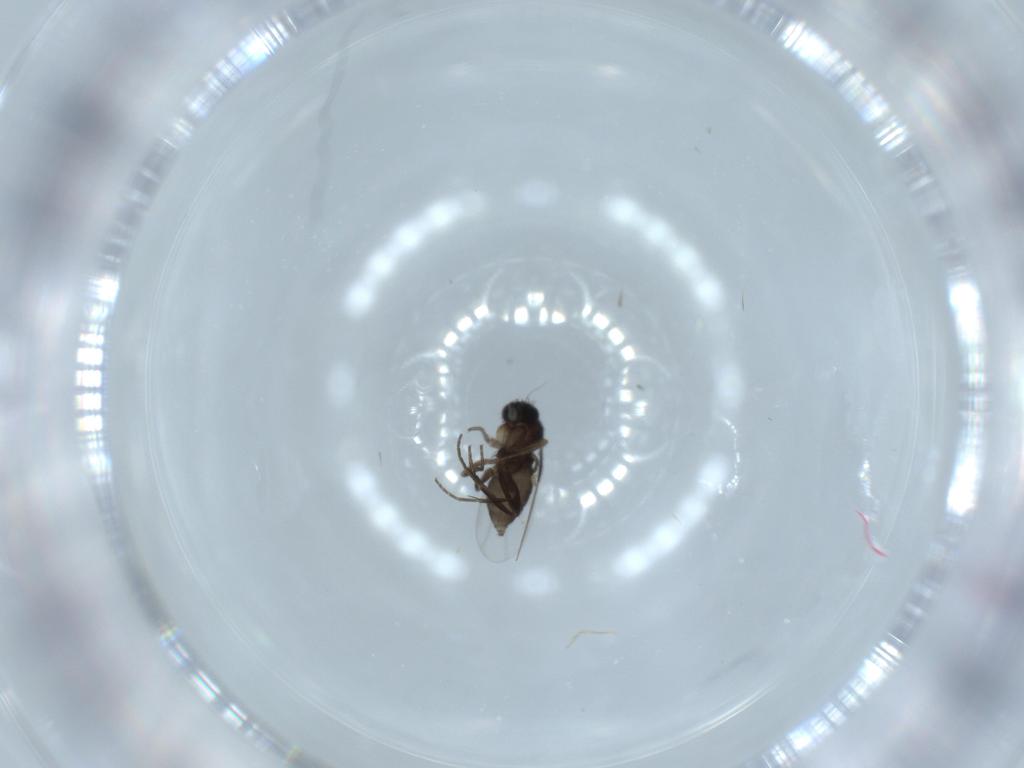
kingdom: Animalia
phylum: Arthropoda
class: Insecta
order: Diptera
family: Phoridae
